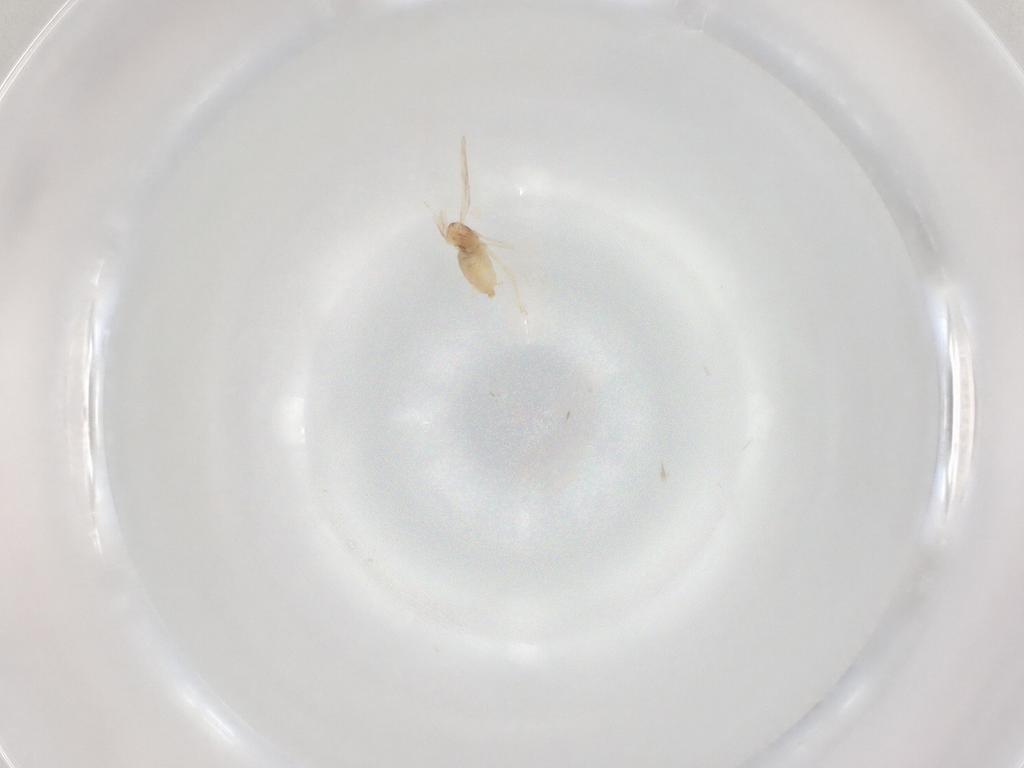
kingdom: Animalia
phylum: Arthropoda
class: Insecta
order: Diptera
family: Cecidomyiidae
